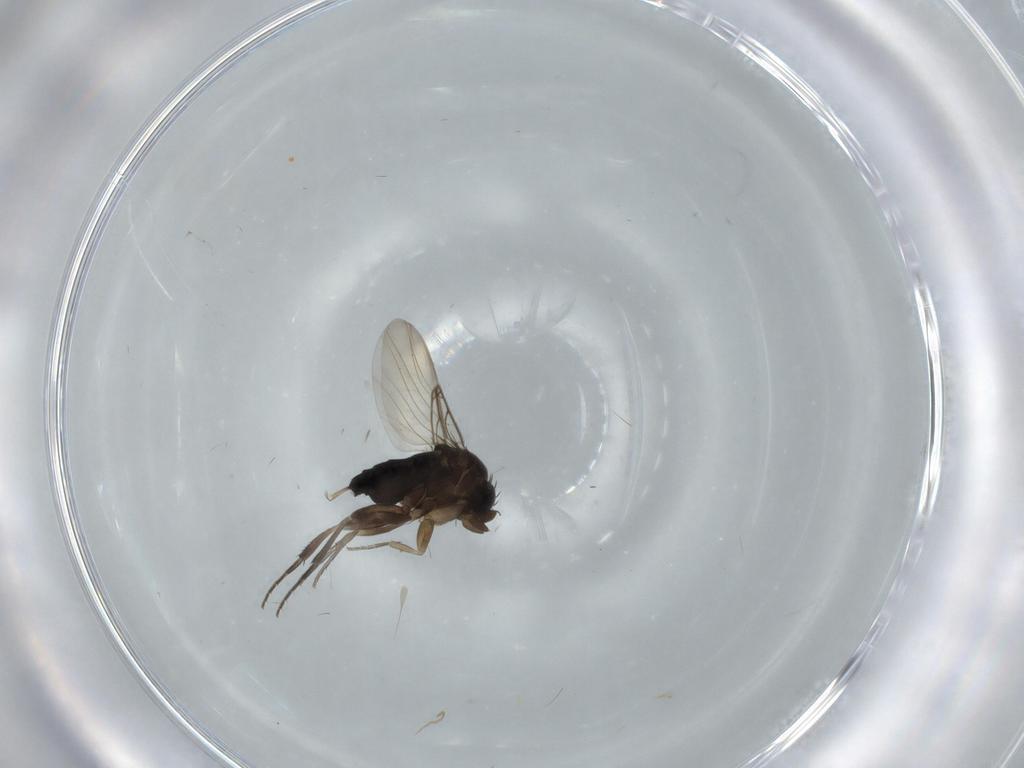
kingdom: Animalia
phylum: Arthropoda
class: Insecta
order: Diptera
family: Phoridae
